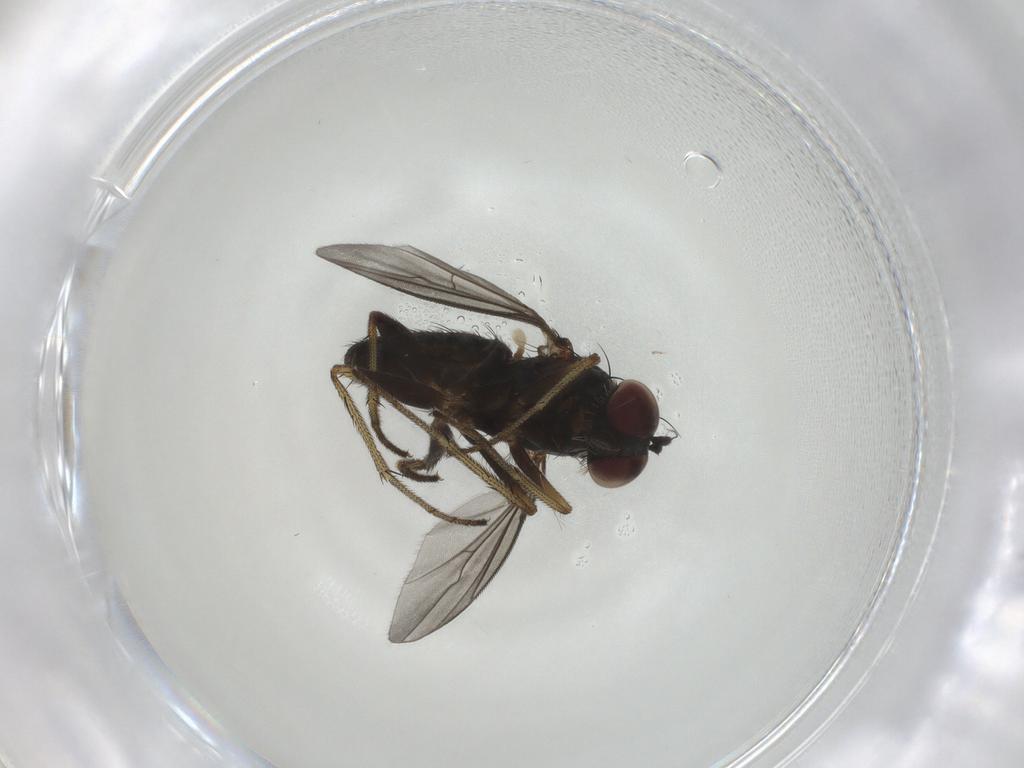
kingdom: Animalia
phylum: Arthropoda
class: Insecta
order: Diptera
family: Dolichopodidae
